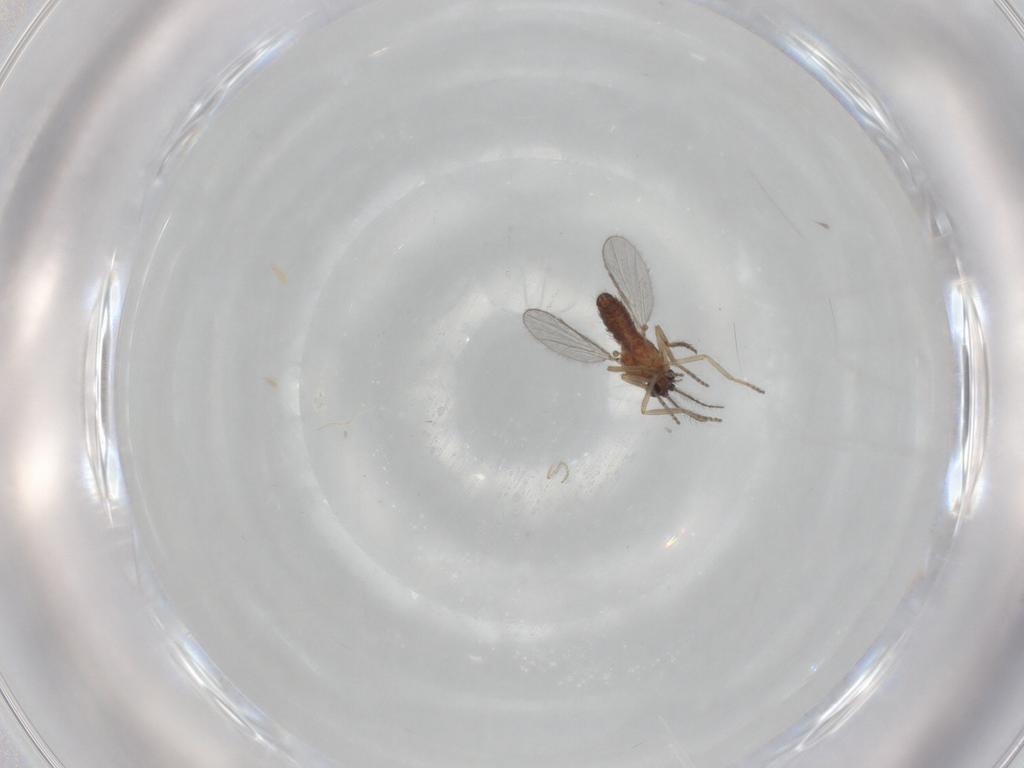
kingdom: Animalia
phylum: Arthropoda
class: Insecta
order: Diptera
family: Ceratopogonidae
